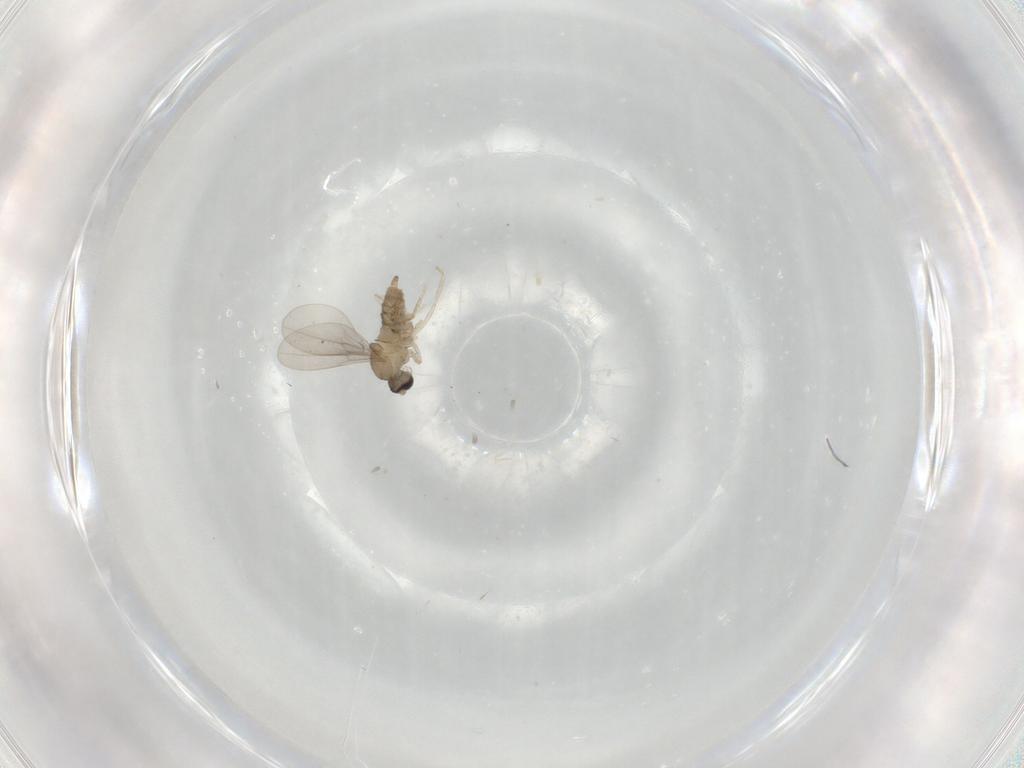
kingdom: Animalia
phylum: Arthropoda
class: Insecta
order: Diptera
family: Cecidomyiidae
